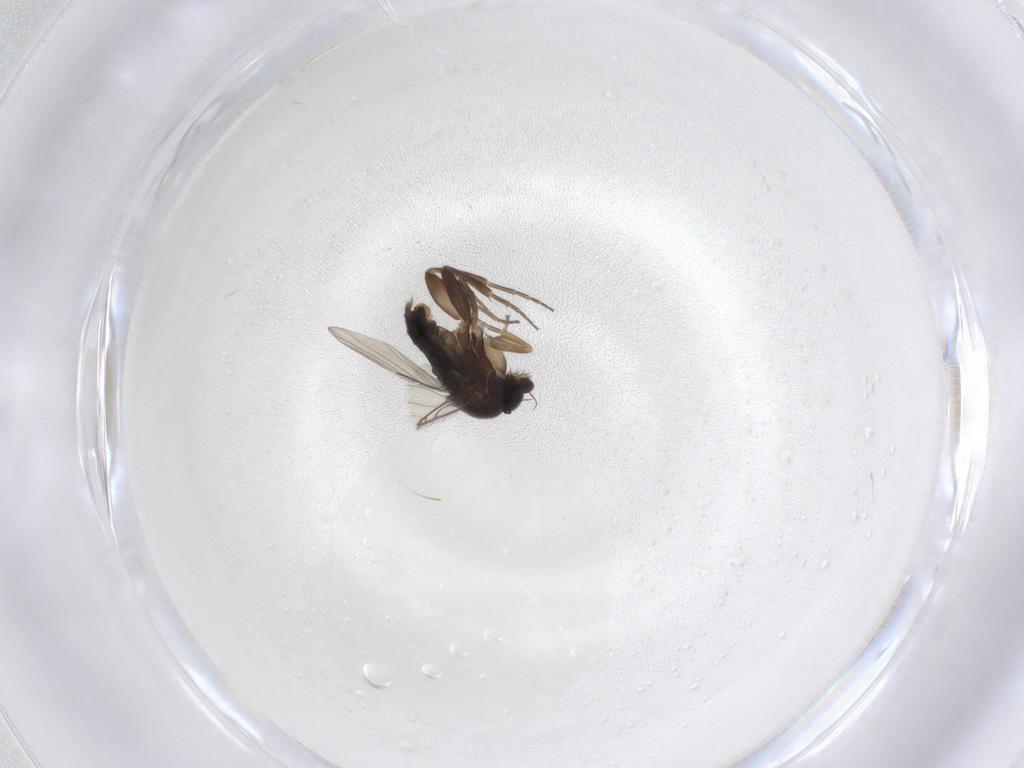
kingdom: Animalia
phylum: Arthropoda
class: Insecta
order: Diptera
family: Phoridae
